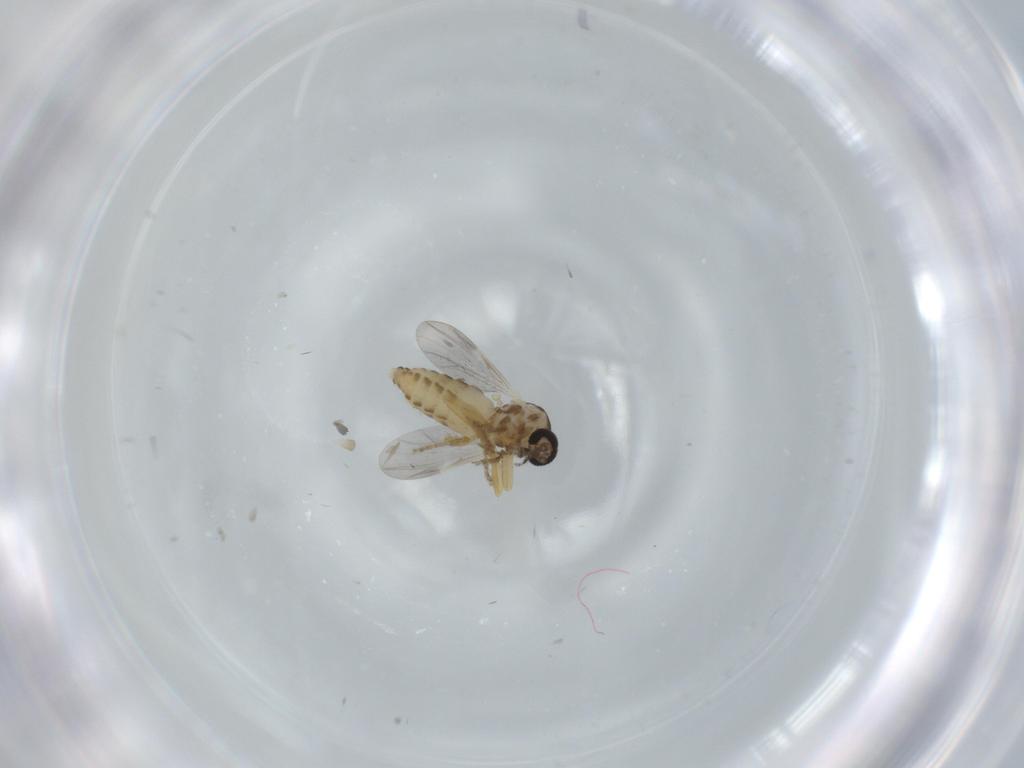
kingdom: Animalia
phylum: Arthropoda
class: Insecta
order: Diptera
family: Ceratopogonidae
